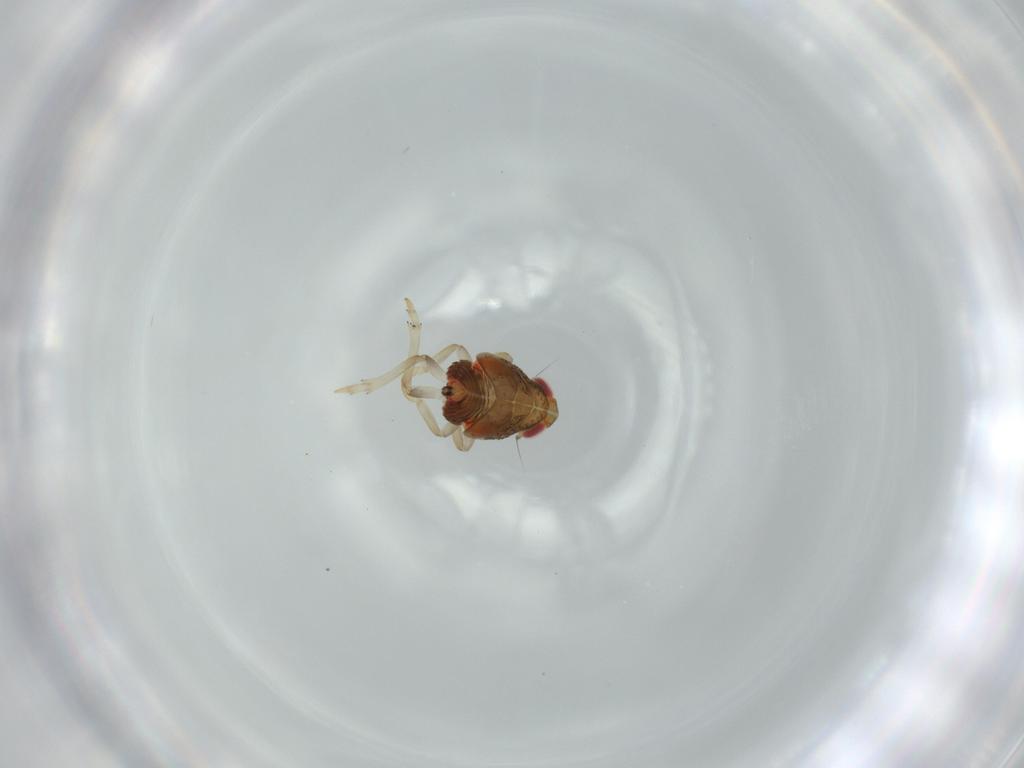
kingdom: Animalia
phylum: Arthropoda
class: Insecta
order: Hemiptera
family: Issidae
